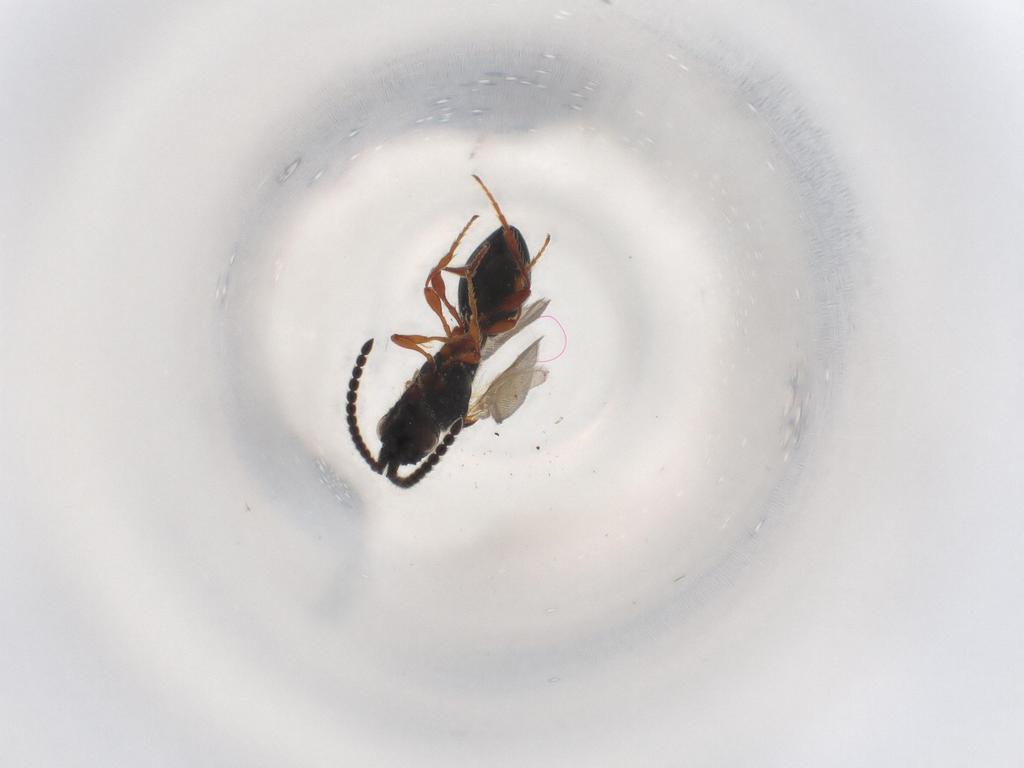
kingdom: Animalia
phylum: Arthropoda
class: Insecta
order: Hymenoptera
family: Diapriidae
